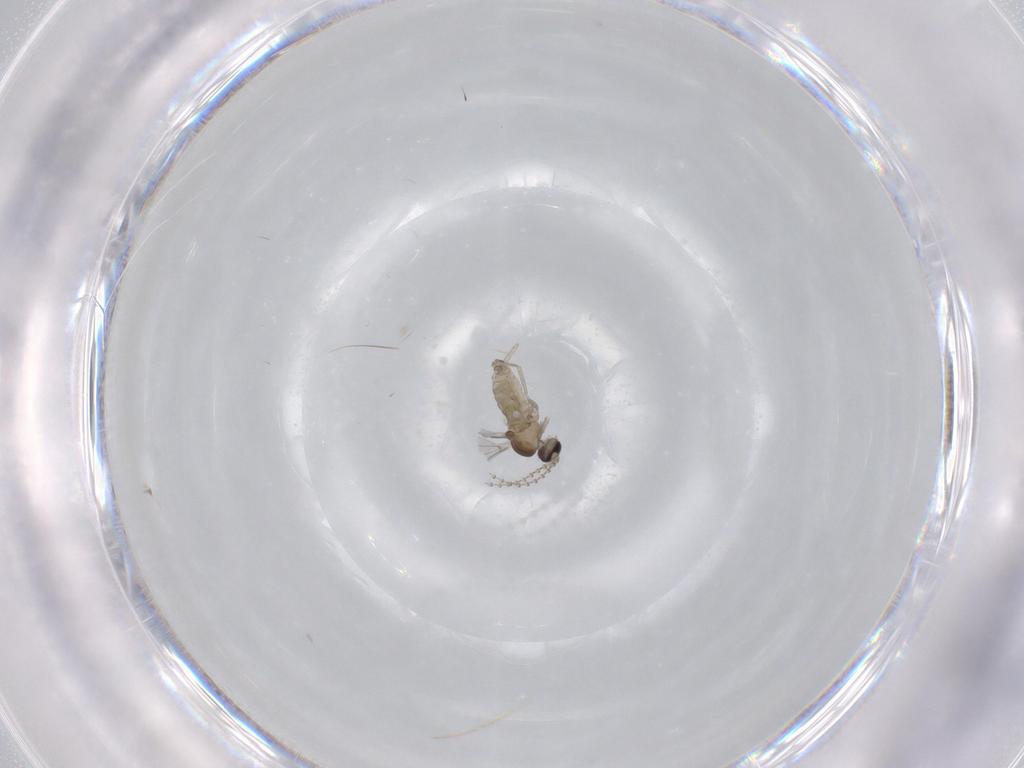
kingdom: Animalia
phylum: Arthropoda
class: Insecta
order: Diptera
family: Cecidomyiidae
